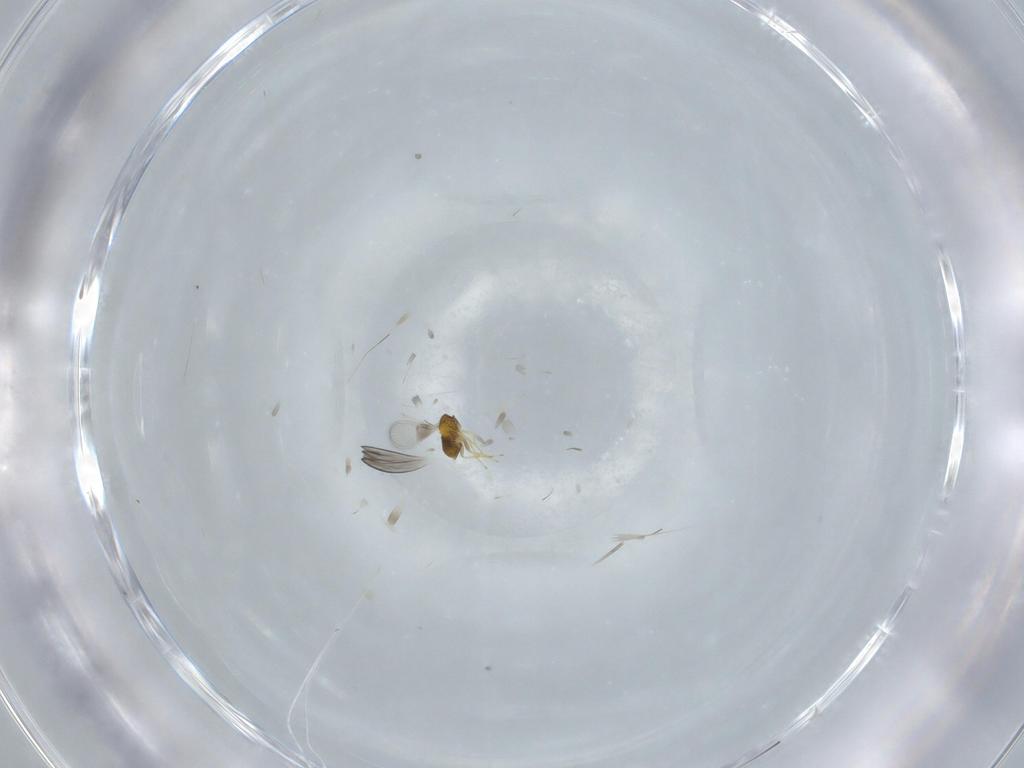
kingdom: Animalia
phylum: Arthropoda
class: Insecta
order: Hymenoptera
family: Trichogrammatidae
